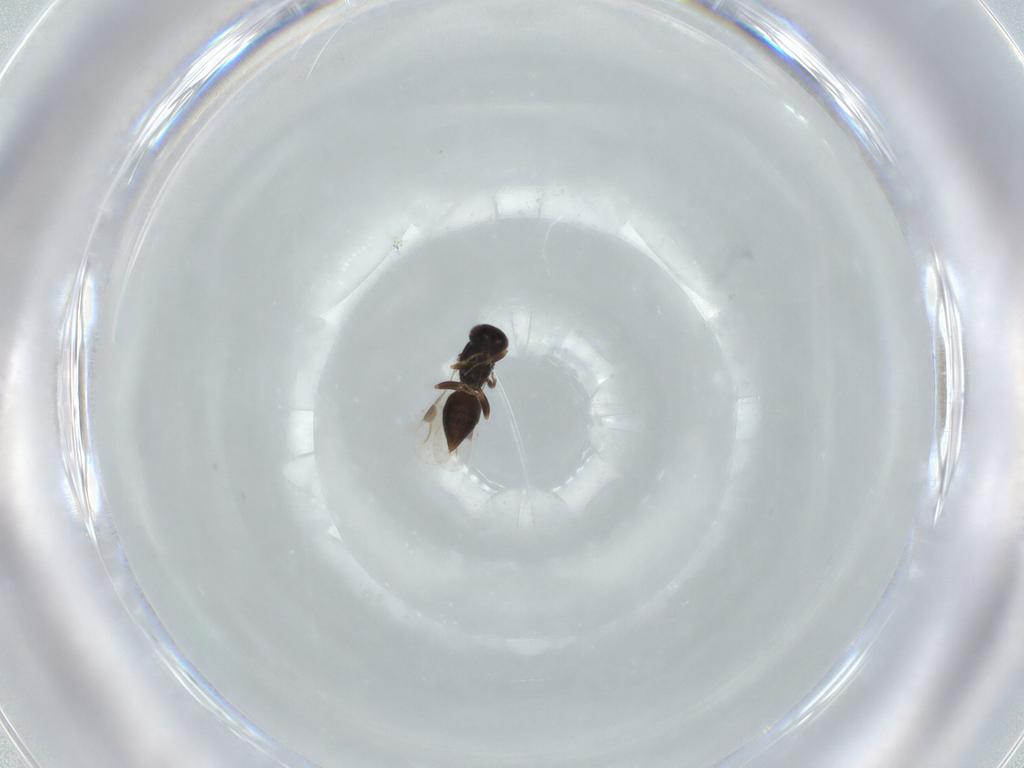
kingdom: Animalia
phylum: Arthropoda
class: Insecta
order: Hymenoptera
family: Megaspilidae
